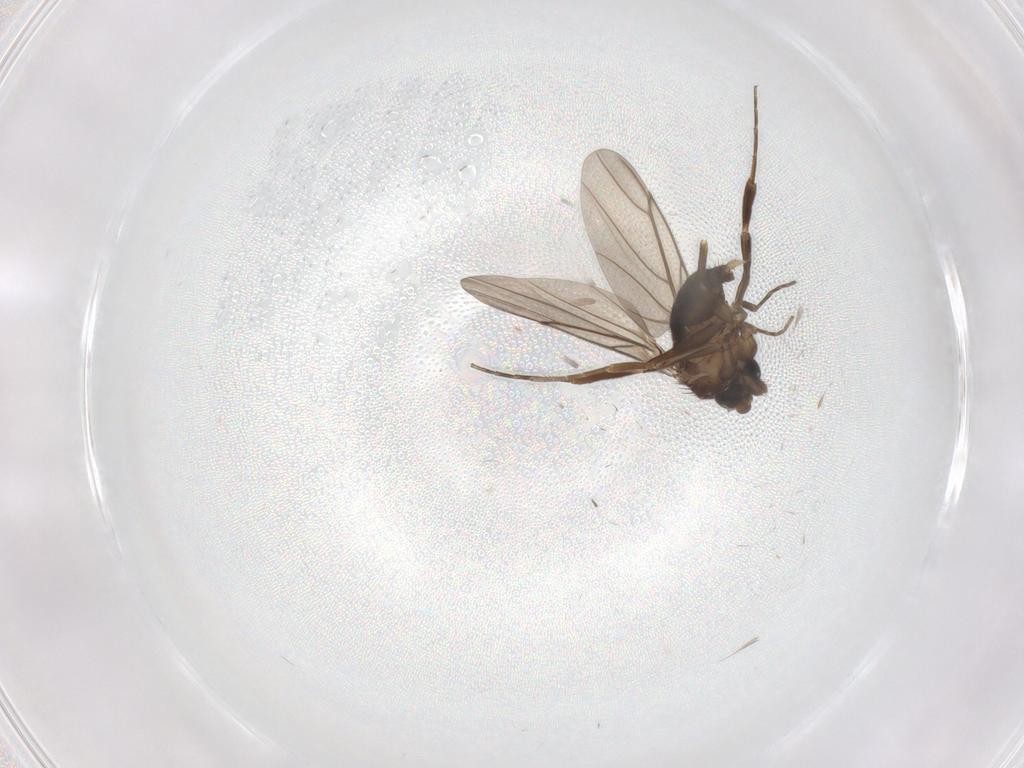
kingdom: Animalia
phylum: Arthropoda
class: Insecta
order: Diptera
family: Phoridae
